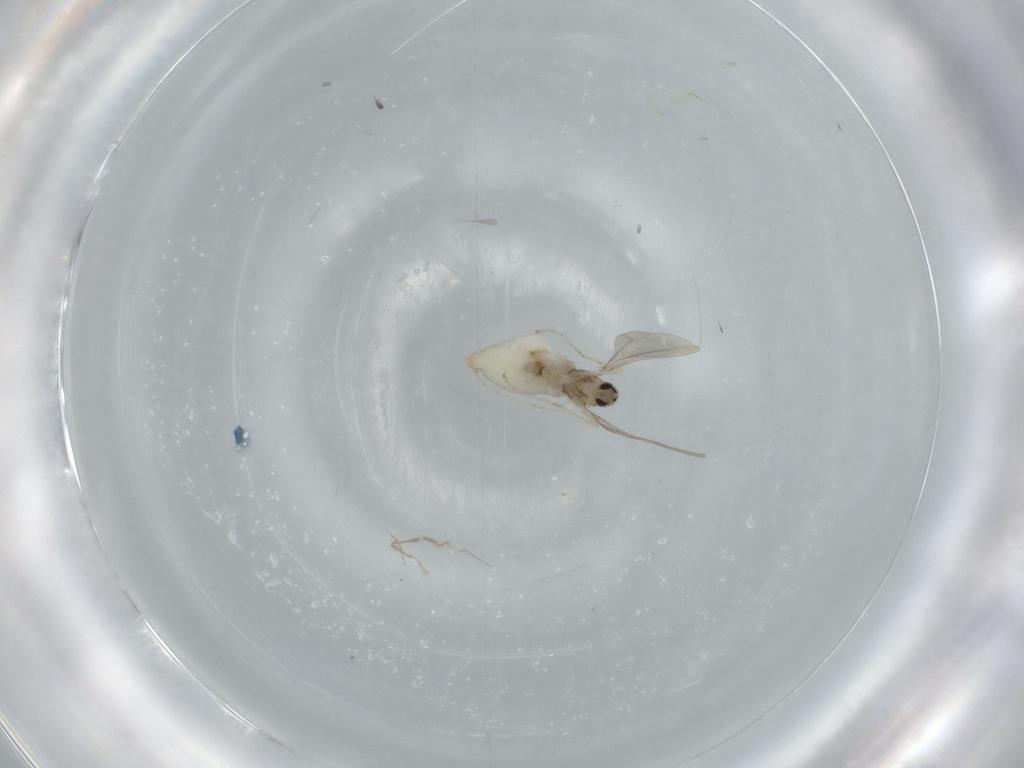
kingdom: Animalia
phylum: Arthropoda
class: Insecta
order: Diptera
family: Cecidomyiidae
